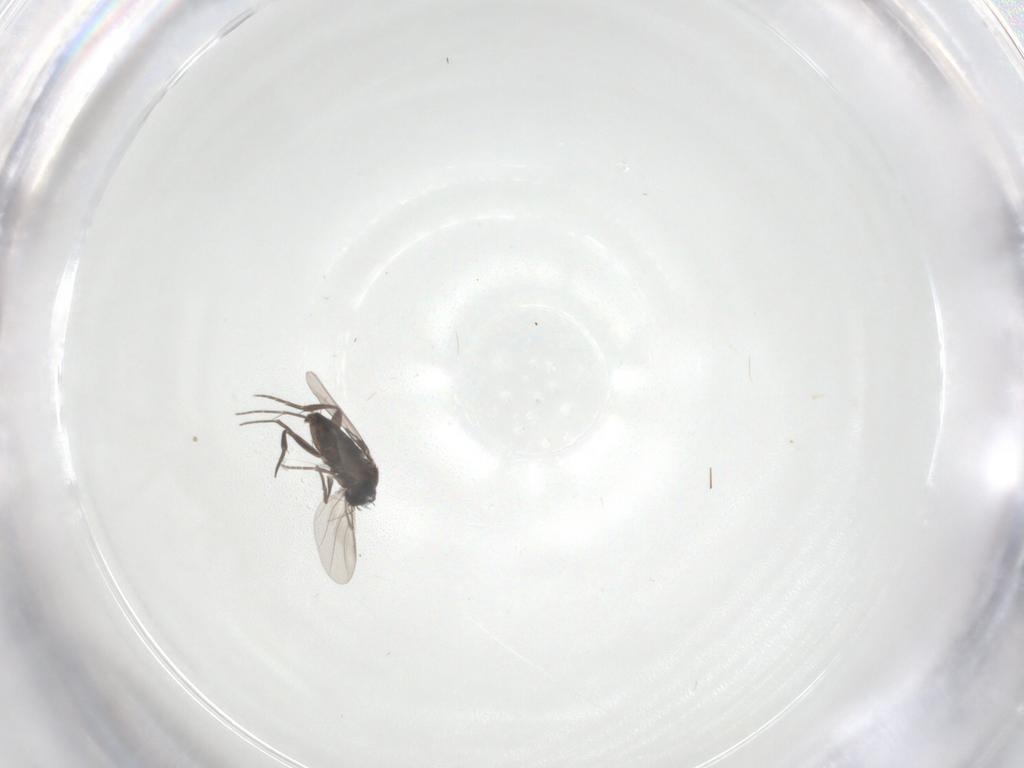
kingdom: Animalia
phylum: Arthropoda
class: Insecta
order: Diptera
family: Phoridae
